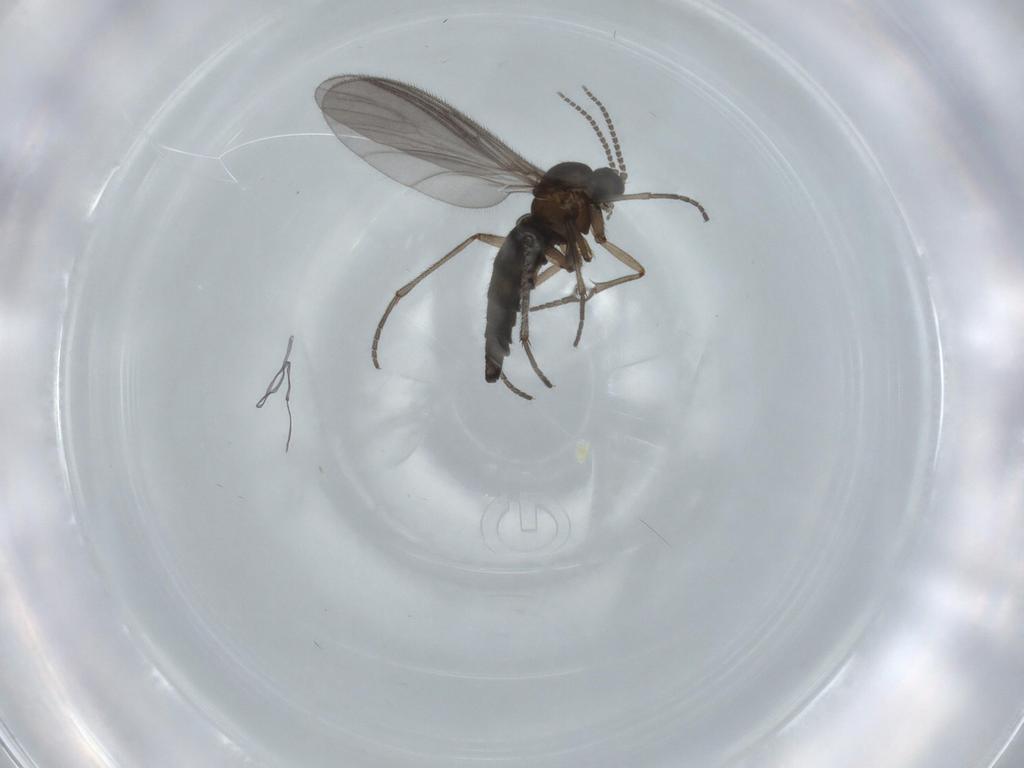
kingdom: Animalia
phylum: Arthropoda
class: Insecta
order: Diptera
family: Sciaridae
